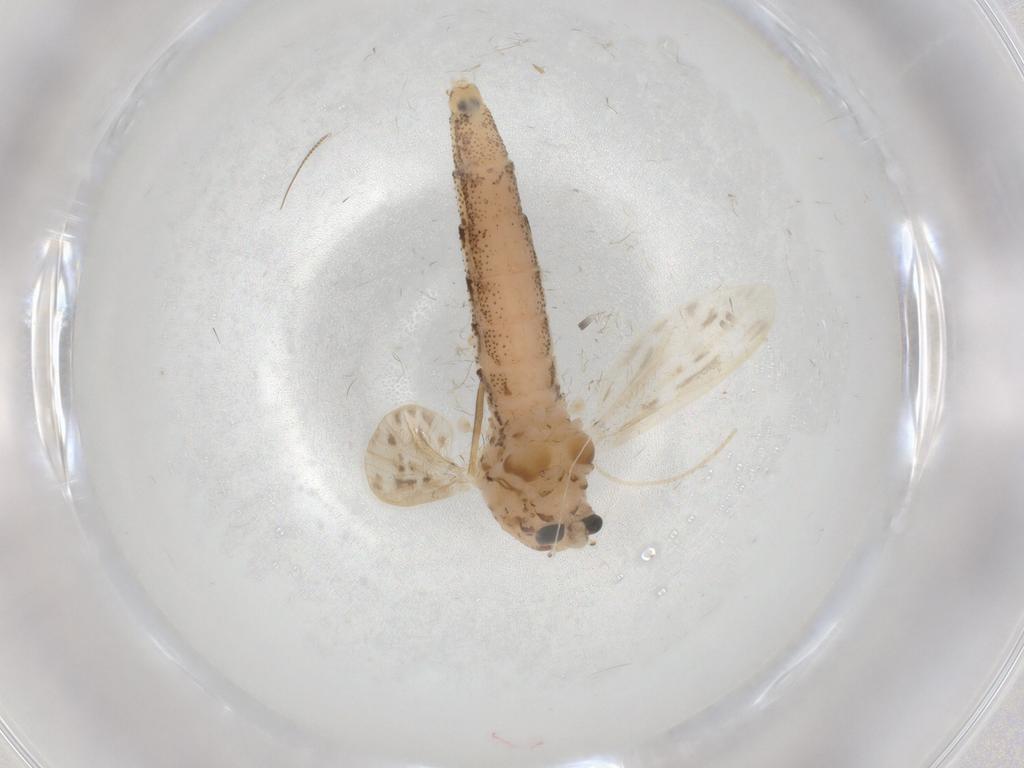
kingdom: Animalia
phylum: Arthropoda
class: Insecta
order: Diptera
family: Chaoboridae
